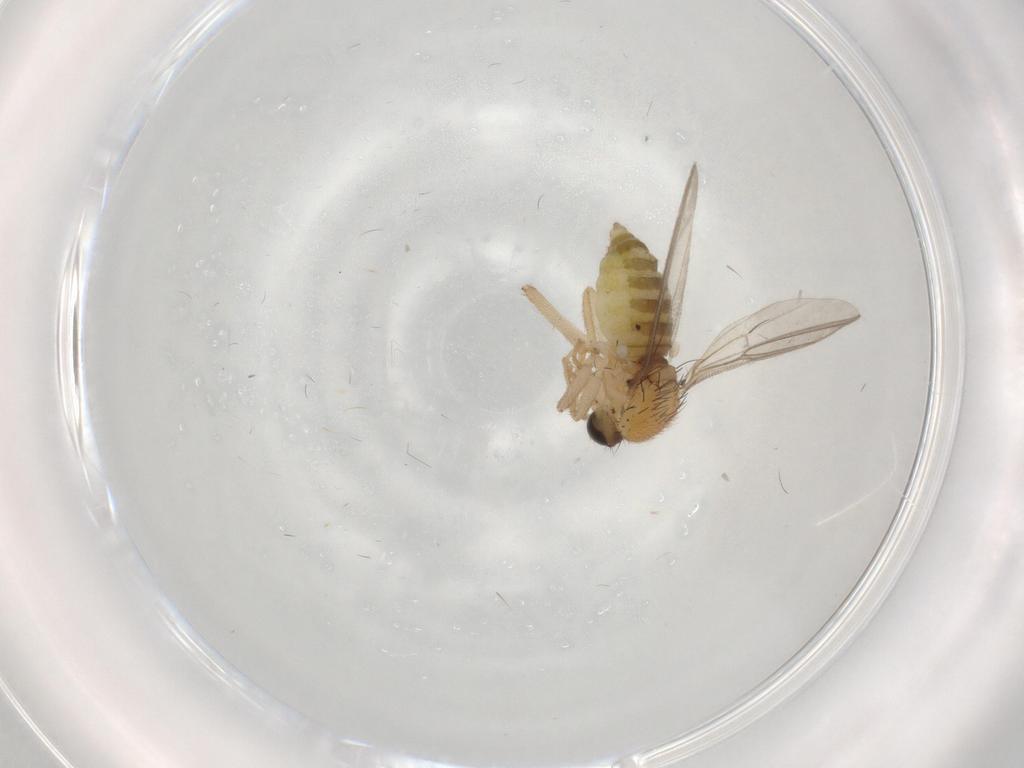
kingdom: Animalia
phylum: Arthropoda
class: Insecta
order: Diptera
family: Hybotidae
